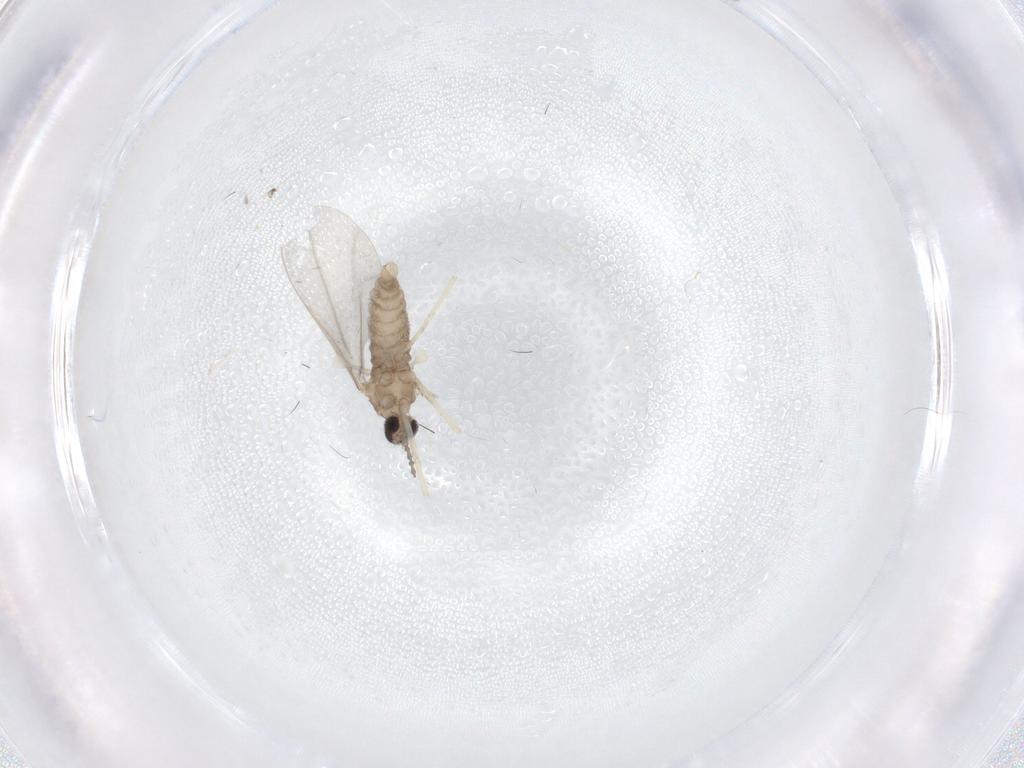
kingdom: Animalia
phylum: Arthropoda
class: Insecta
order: Diptera
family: Cecidomyiidae
